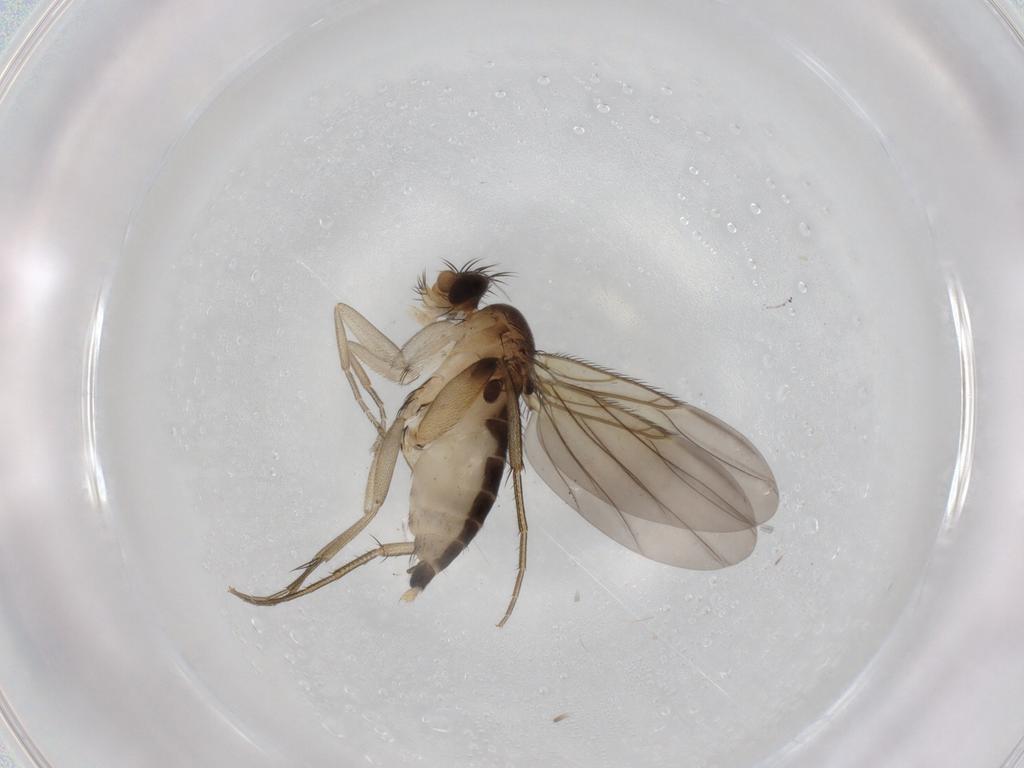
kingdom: Animalia
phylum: Arthropoda
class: Insecta
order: Diptera
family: Phoridae
